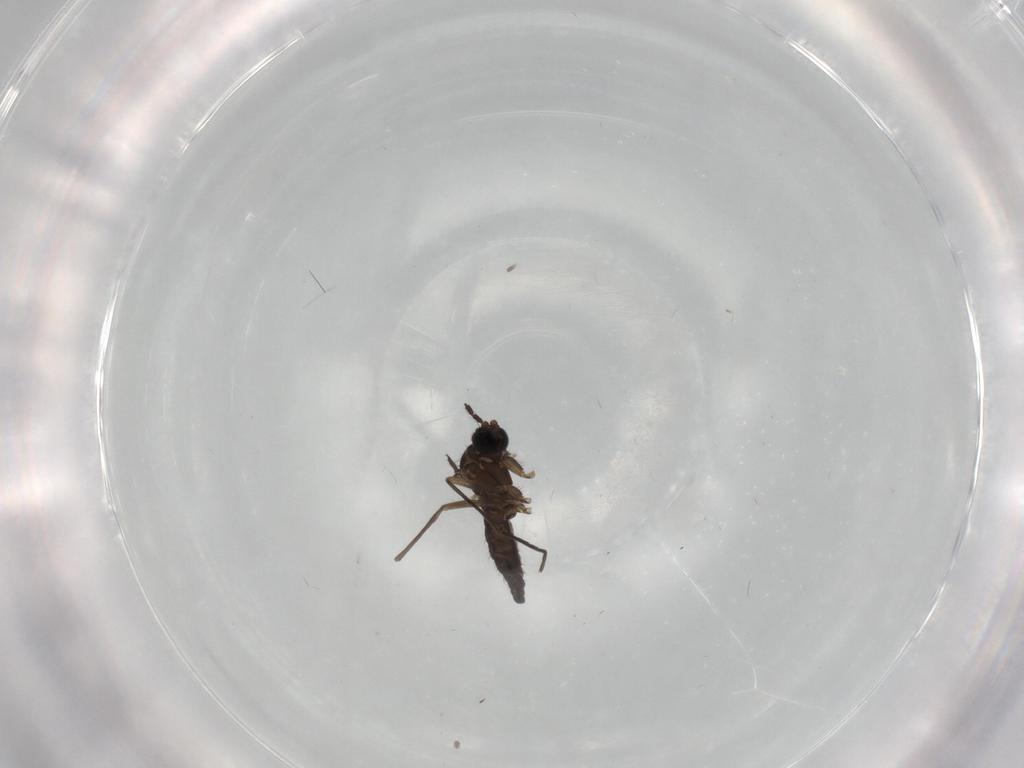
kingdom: Animalia
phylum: Arthropoda
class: Insecta
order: Diptera
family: Sciaridae
